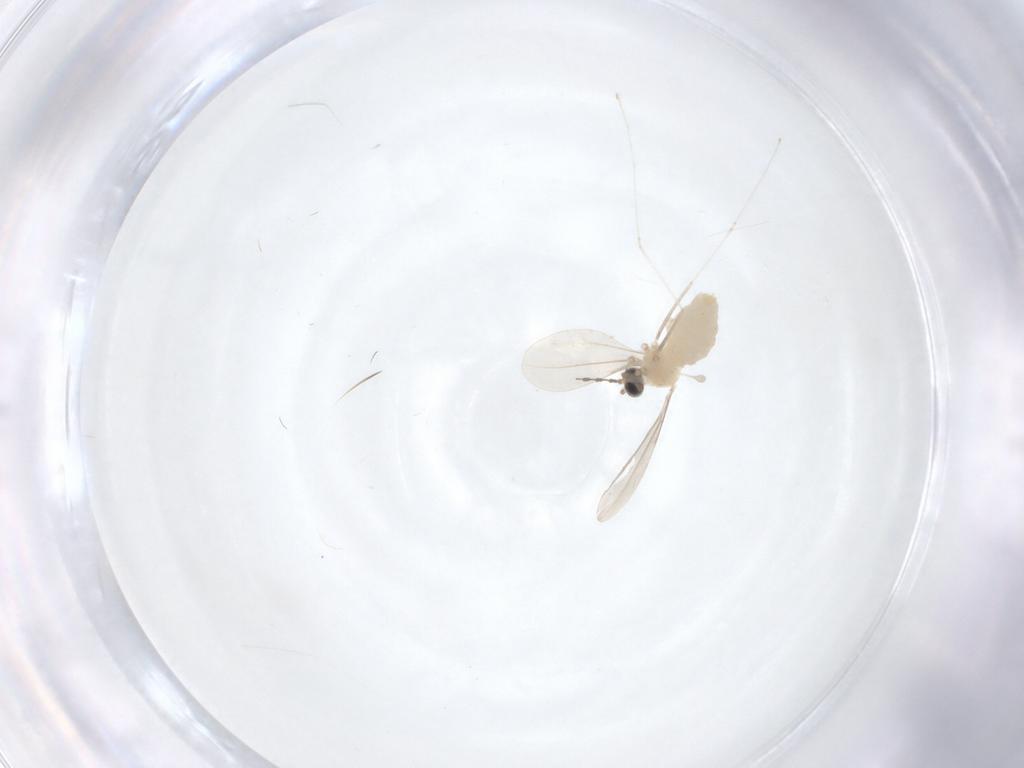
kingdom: Animalia
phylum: Arthropoda
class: Insecta
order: Diptera
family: Cecidomyiidae
